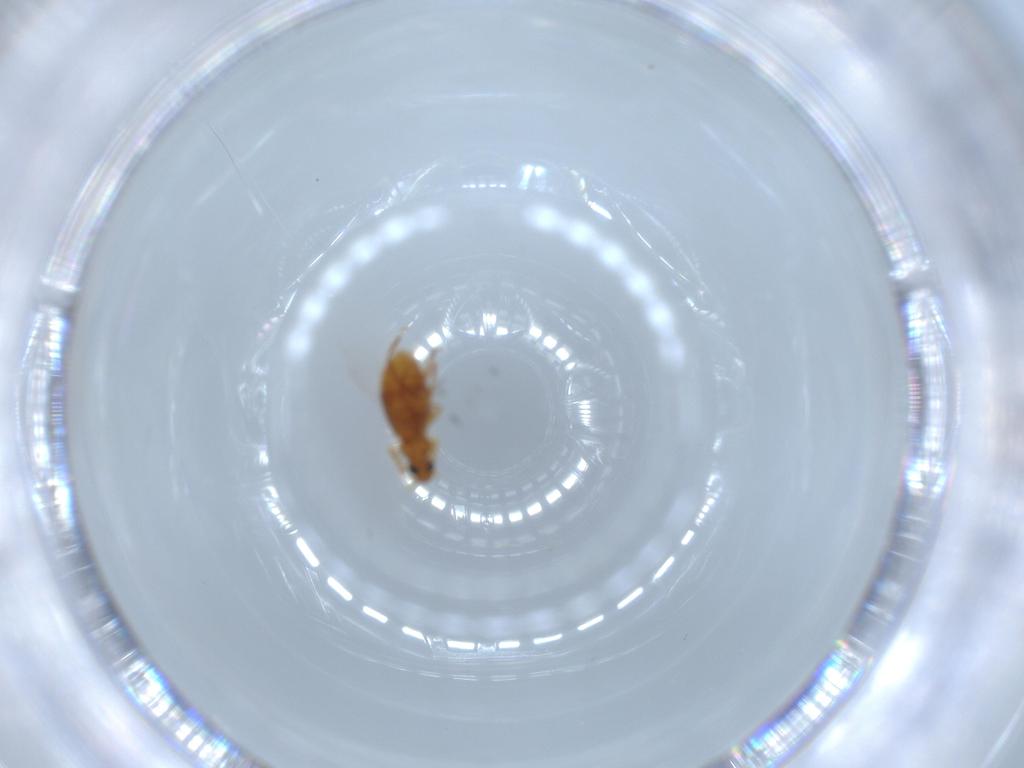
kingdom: Animalia
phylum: Arthropoda
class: Insecta
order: Coleoptera
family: Staphylinidae
